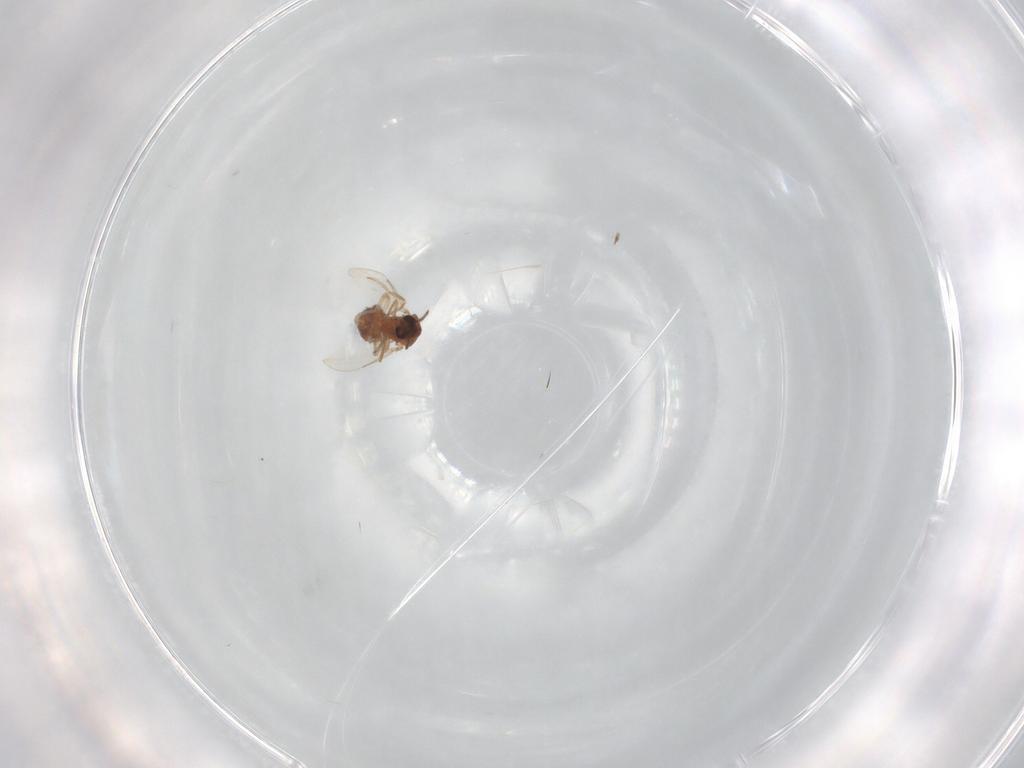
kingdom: Animalia
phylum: Arthropoda
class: Insecta
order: Diptera
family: Ceratopogonidae
